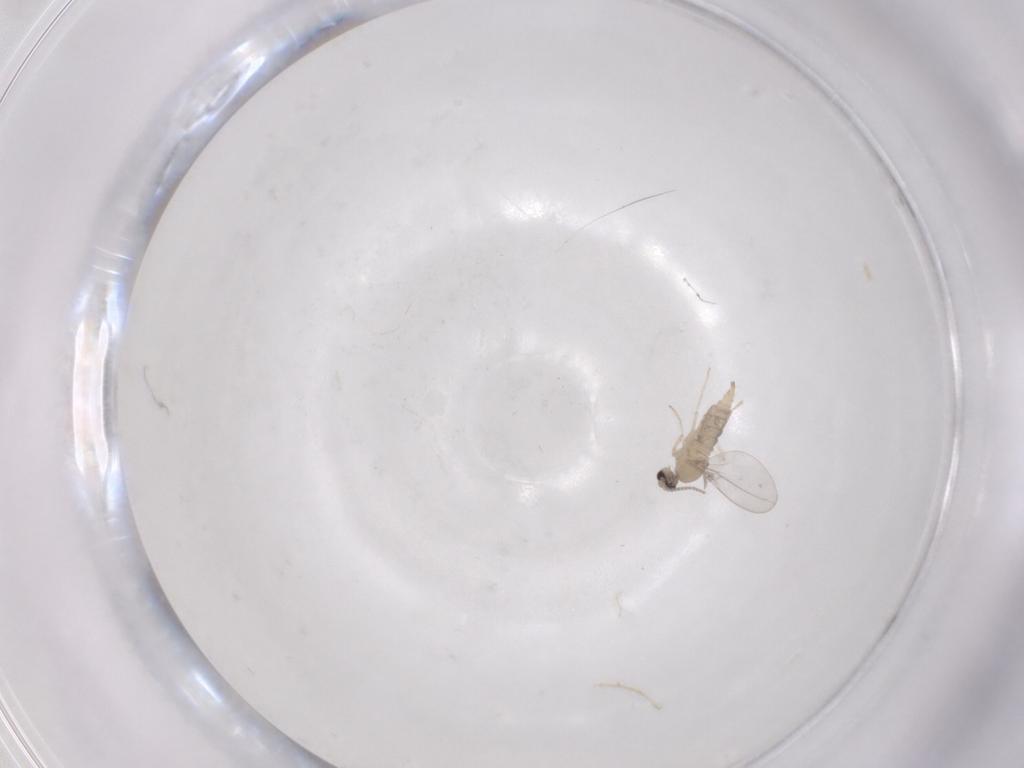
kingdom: Animalia
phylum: Arthropoda
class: Insecta
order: Diptera
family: Cecidomyiidae
